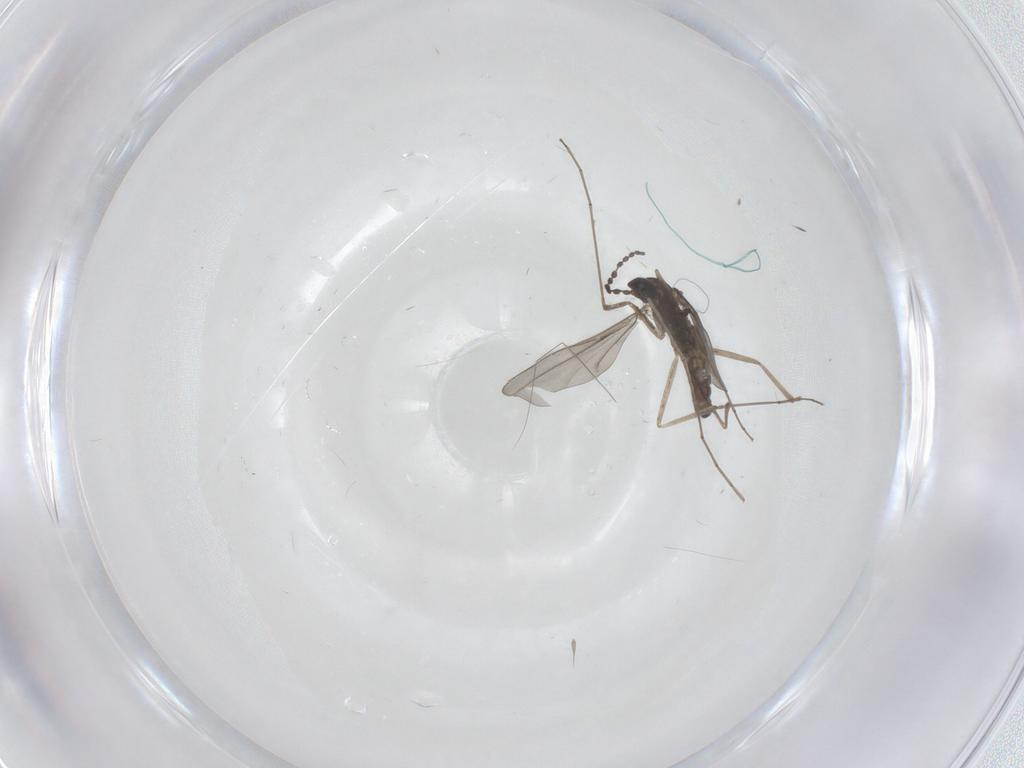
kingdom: Animalia
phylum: Arthropoda
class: Insecta
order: Diptera
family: Cecidomyiidae
